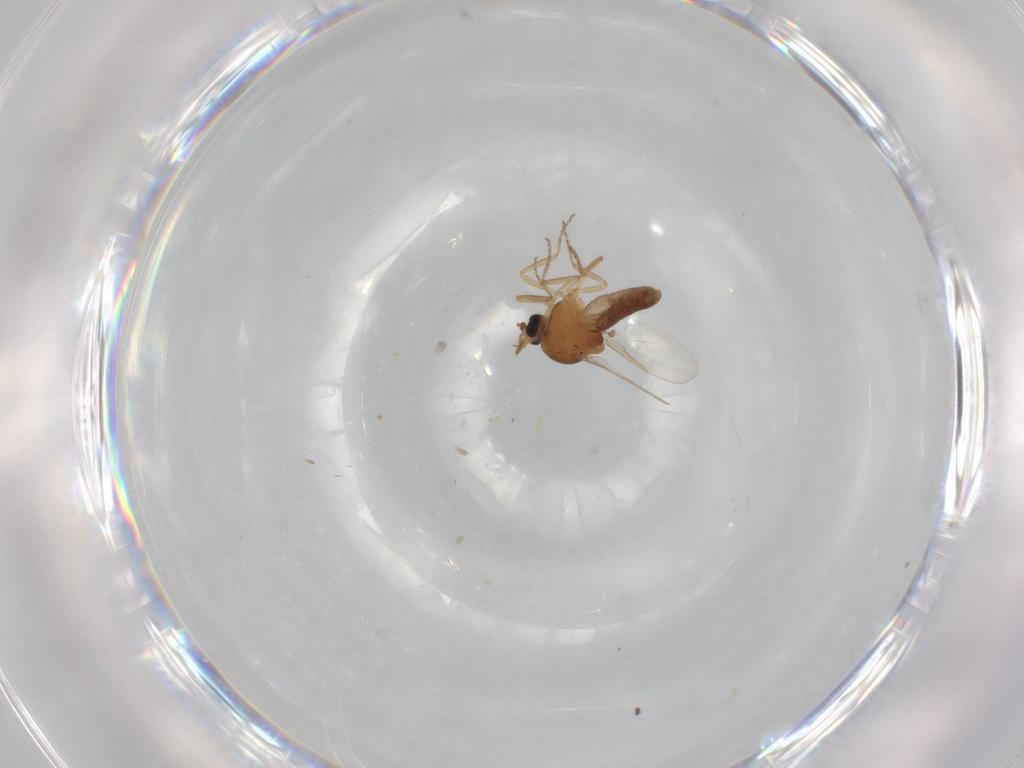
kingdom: Animalia
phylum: Arthropoda
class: Insecta
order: Diptera
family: Ceratopogonidae
